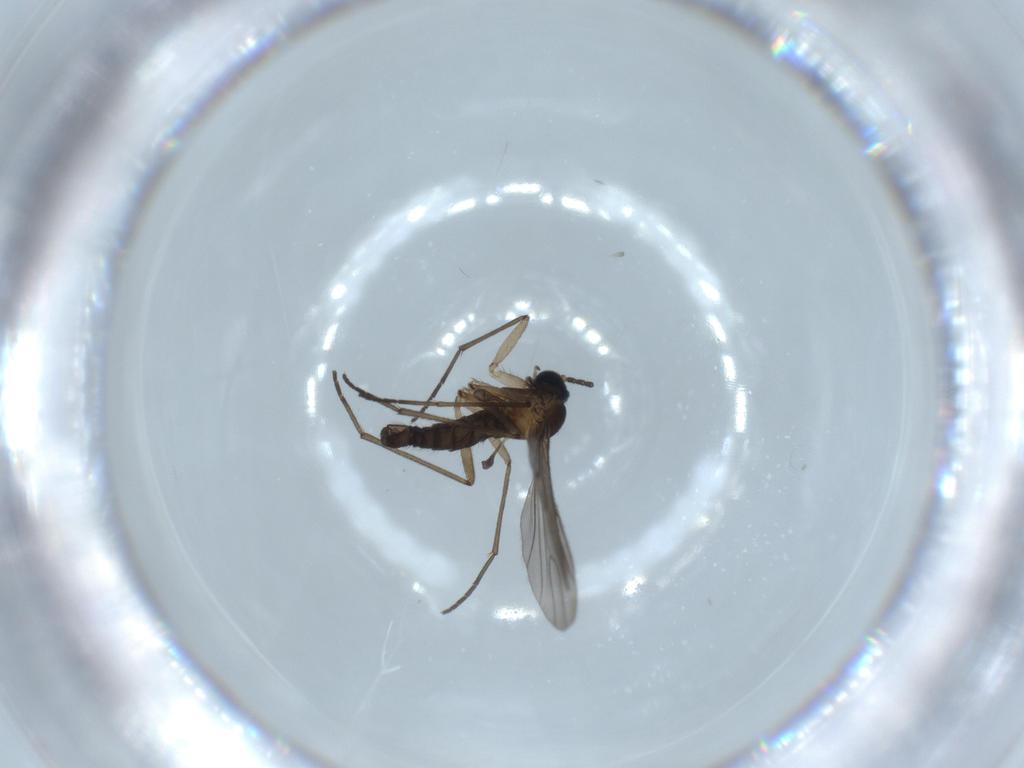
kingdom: Animalia
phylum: Arthropoda
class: Insecta
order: Diptera
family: Sciaridae
